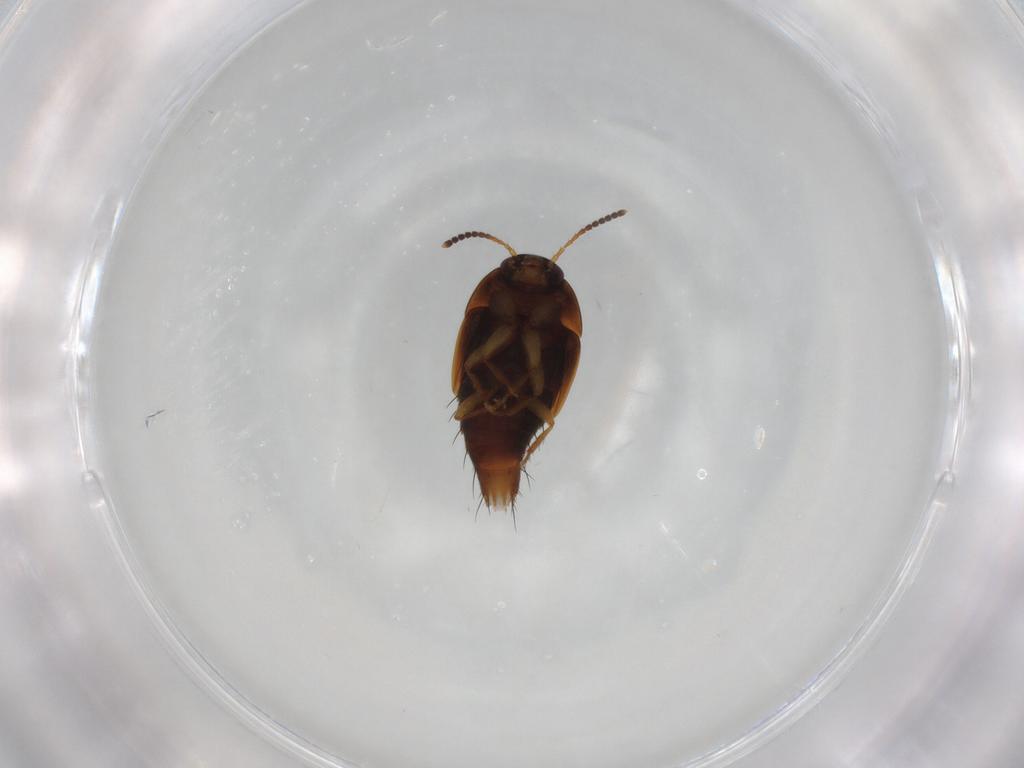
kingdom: Animalia
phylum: Arthropoda
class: Insecta
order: Coleoptera
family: Staphylinidae
